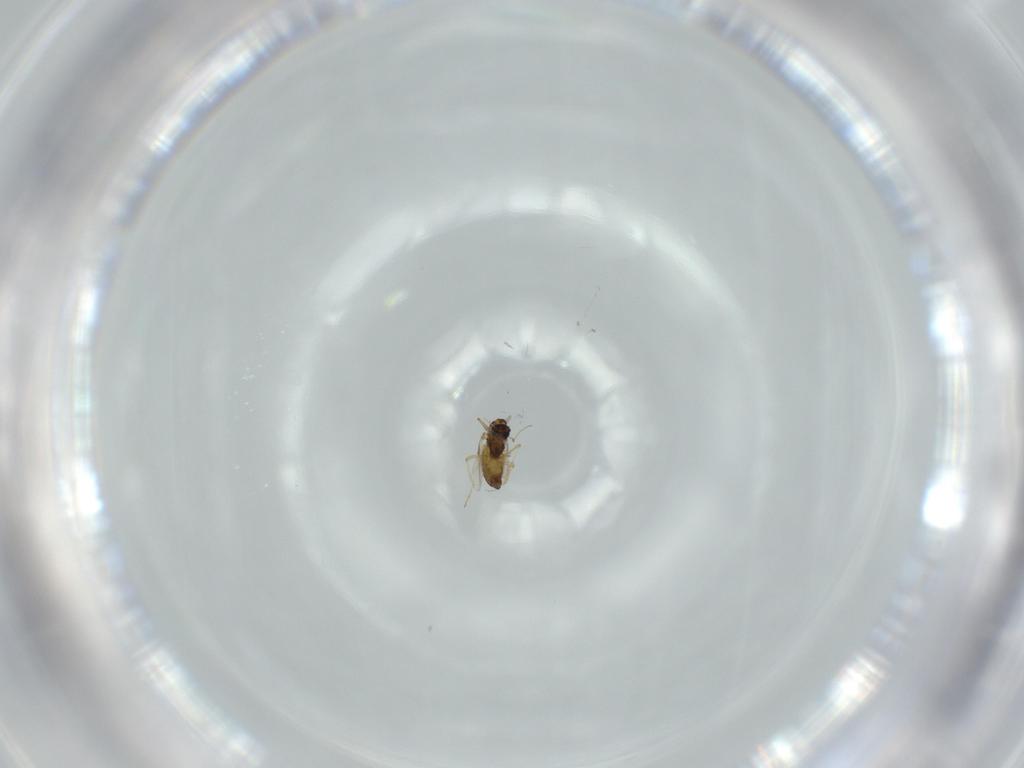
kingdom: Animalia
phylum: Arthropoda
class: Insecta
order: Diptera
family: Chironomidae
